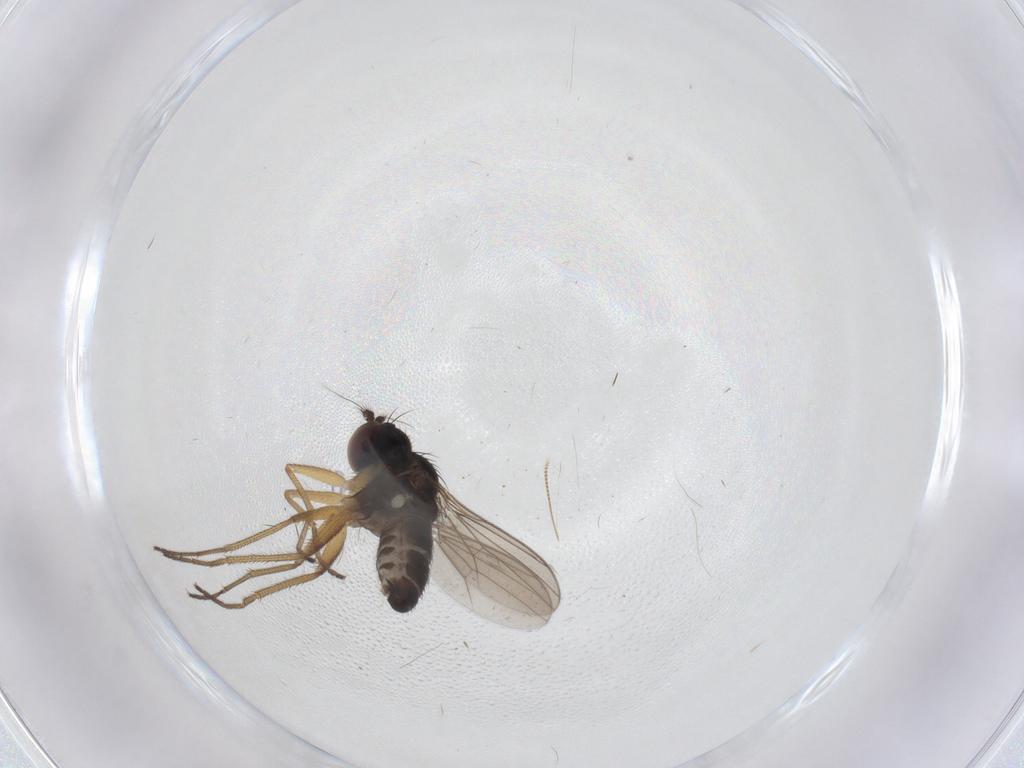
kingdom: Animalia
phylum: Arthropoda
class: Insecta
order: Diptera
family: Dolichopodidae
